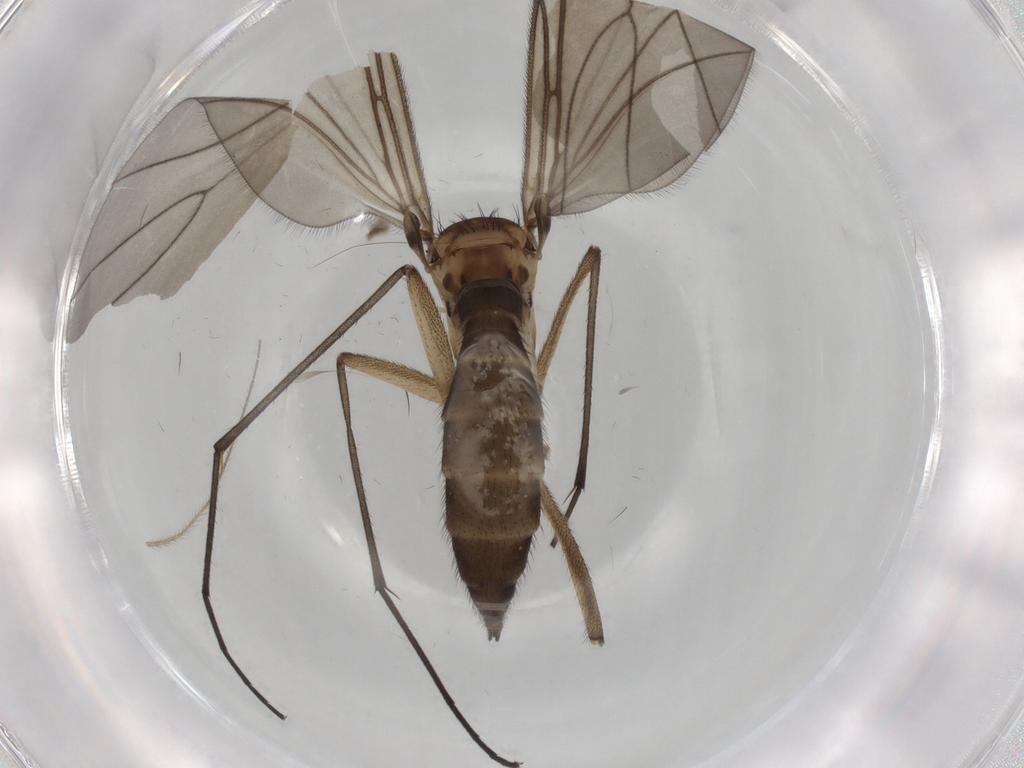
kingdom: Animalia
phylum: Arthropoda
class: Insecta
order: Diptera
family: Sciaridae
